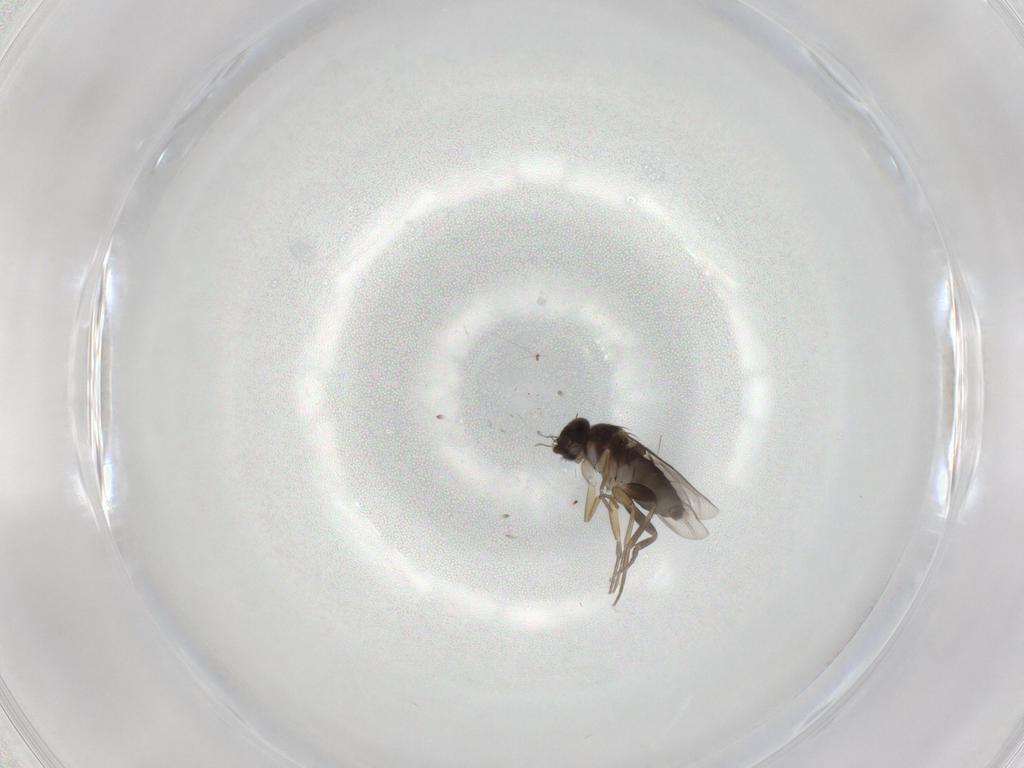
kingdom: Animalia
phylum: Arthropoda
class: Insecta
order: Diptera
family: Phoridae
